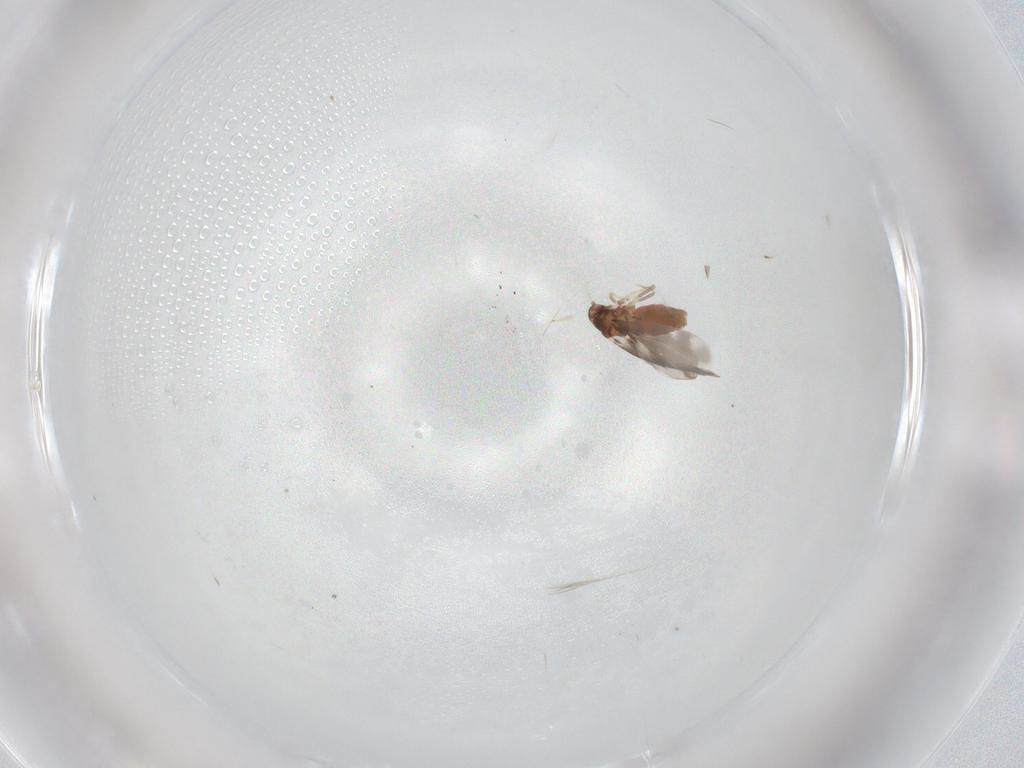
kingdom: Animalia
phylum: Arthropoda
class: Insecta
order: Hemiptera
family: Aleyrodidae
